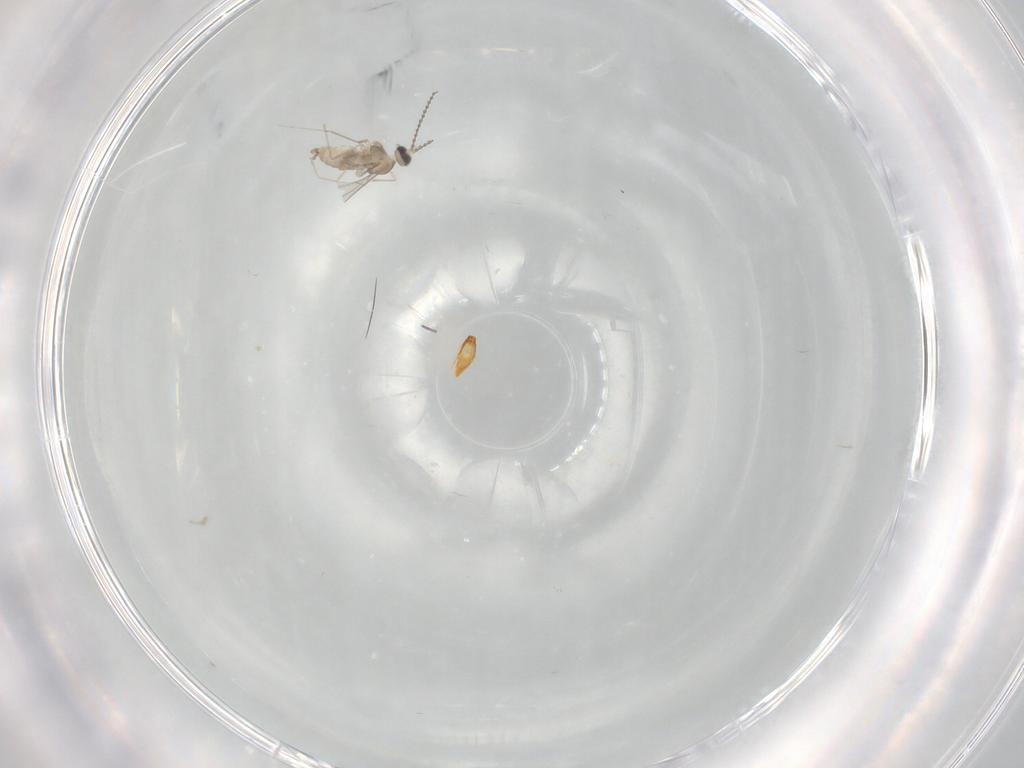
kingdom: Animalia
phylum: Arthropoda
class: Insecta
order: Diptera
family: Cecidomyiidae
